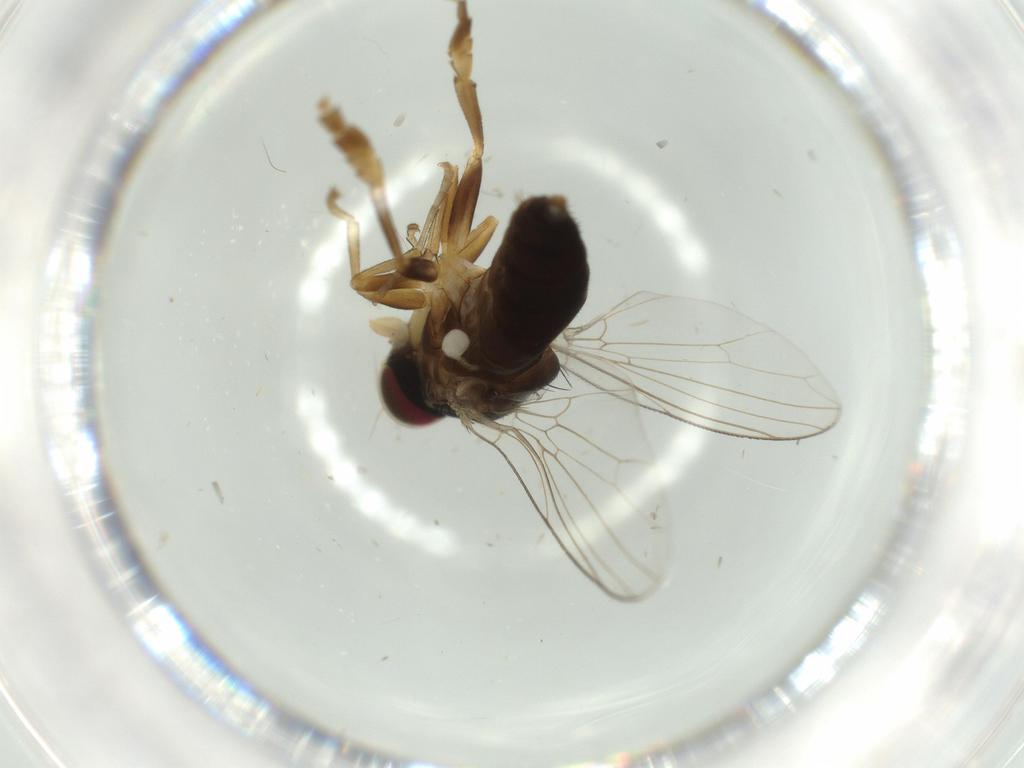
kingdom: Animalia
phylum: Arthropoda
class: Insecta
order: Diptera
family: Platypezidae
